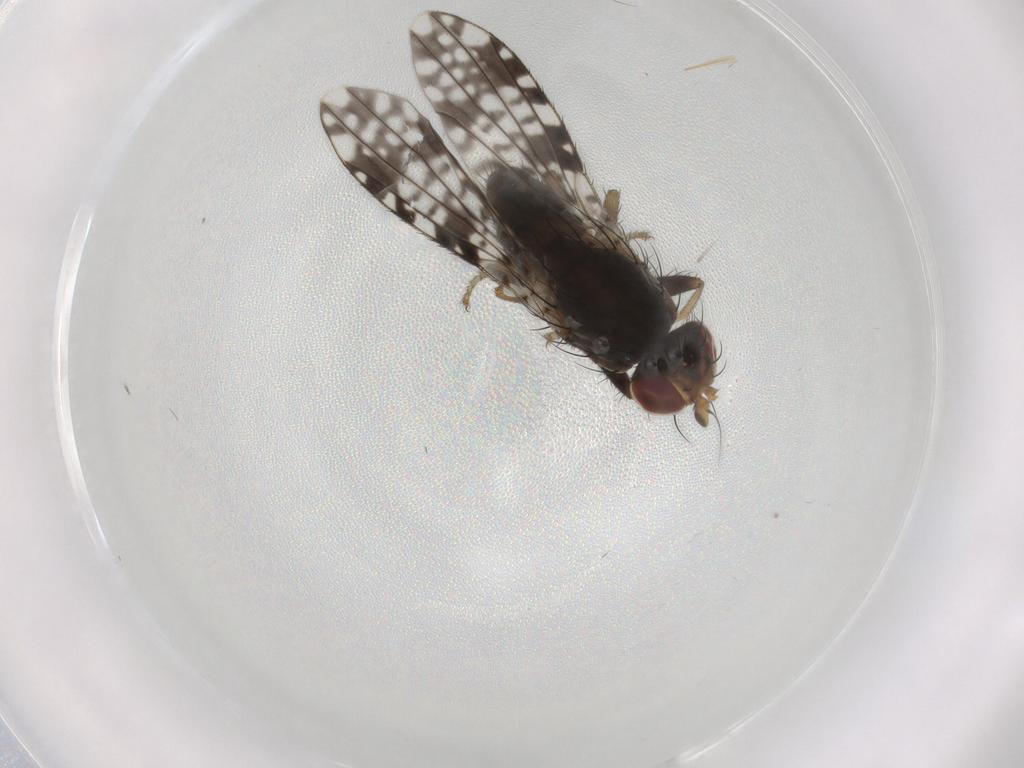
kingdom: Animalia
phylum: Arthropoda
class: Insecta
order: Diptera
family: Tephritidae
